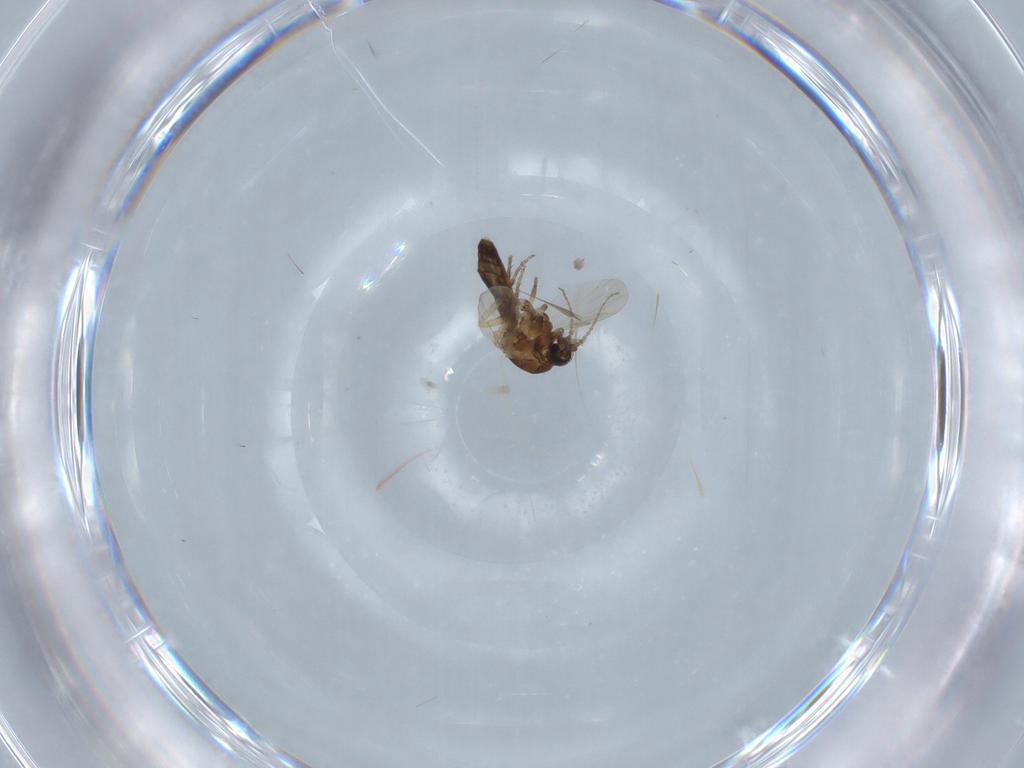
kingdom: Animalia
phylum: Arthropoda
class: Insecta
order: Diptera
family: Ceratopogonidae
